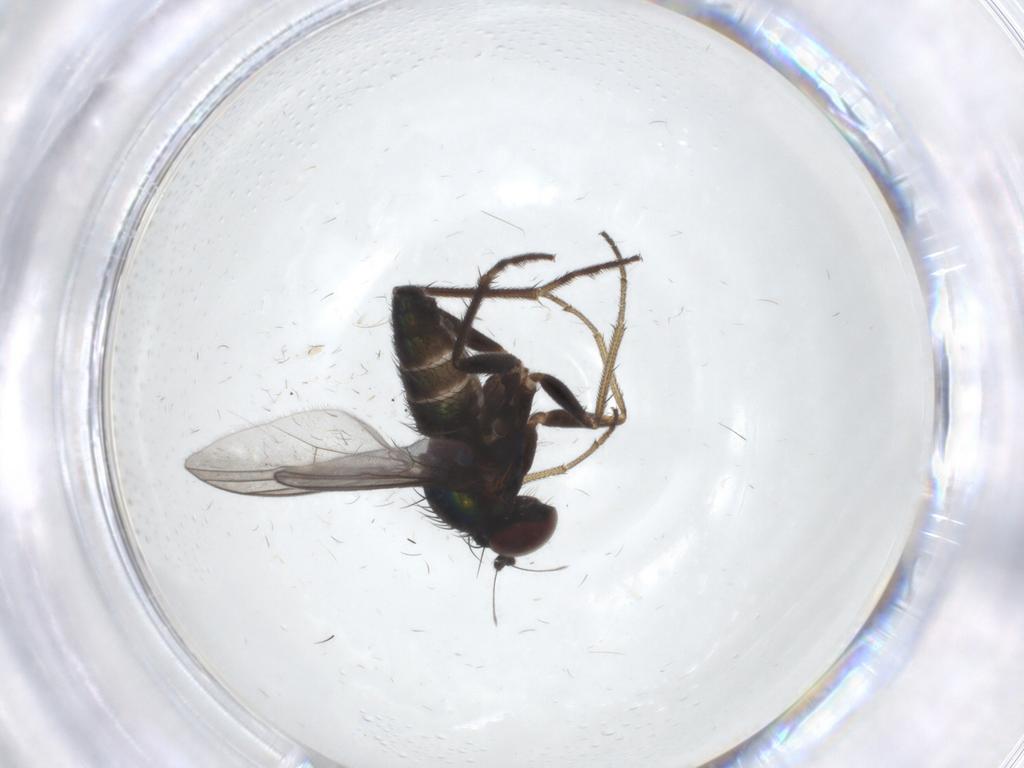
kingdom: Animalia
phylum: Arthropoda
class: Insecta
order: Diptera
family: Dolichopodidae
